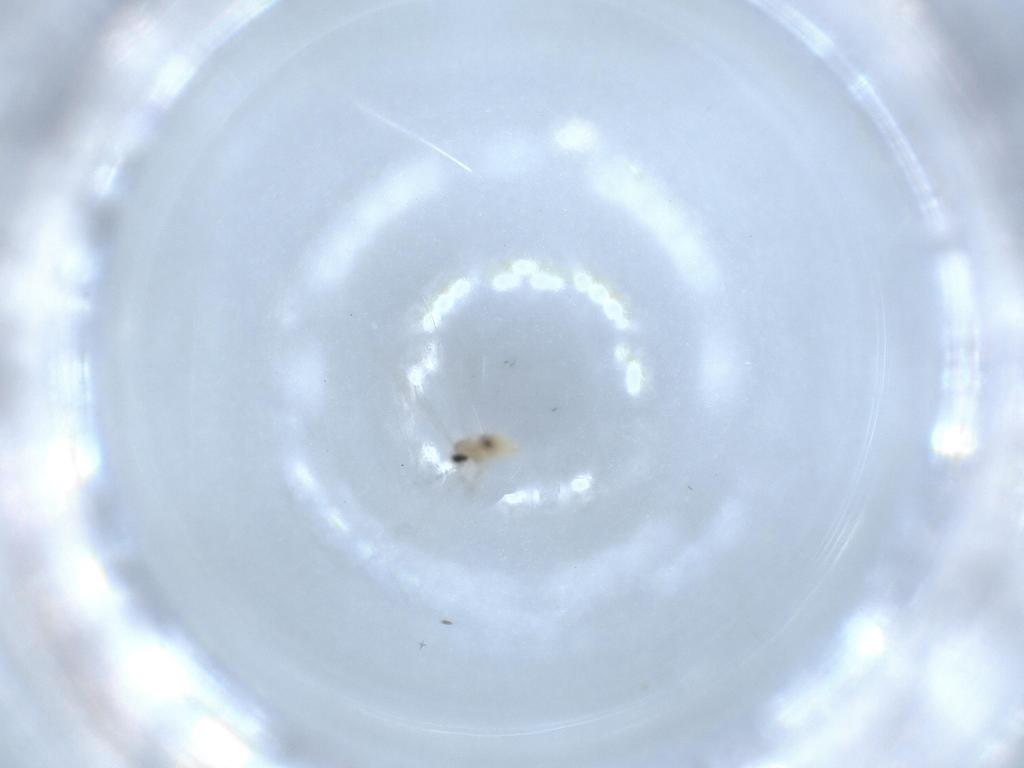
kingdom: Animalia
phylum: Arthropoda
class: Insecta
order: Diptera
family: Cecidomyiidae
